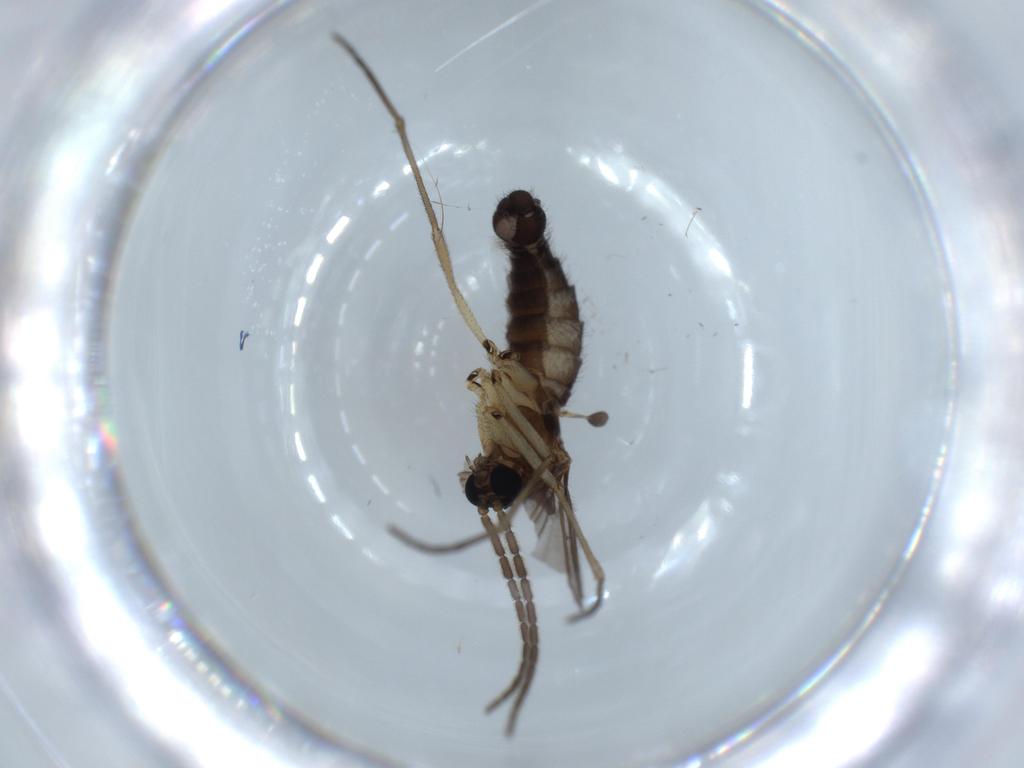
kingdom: Animalia
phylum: Arthropoda
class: Insecta
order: Diptera
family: Sciaridae
